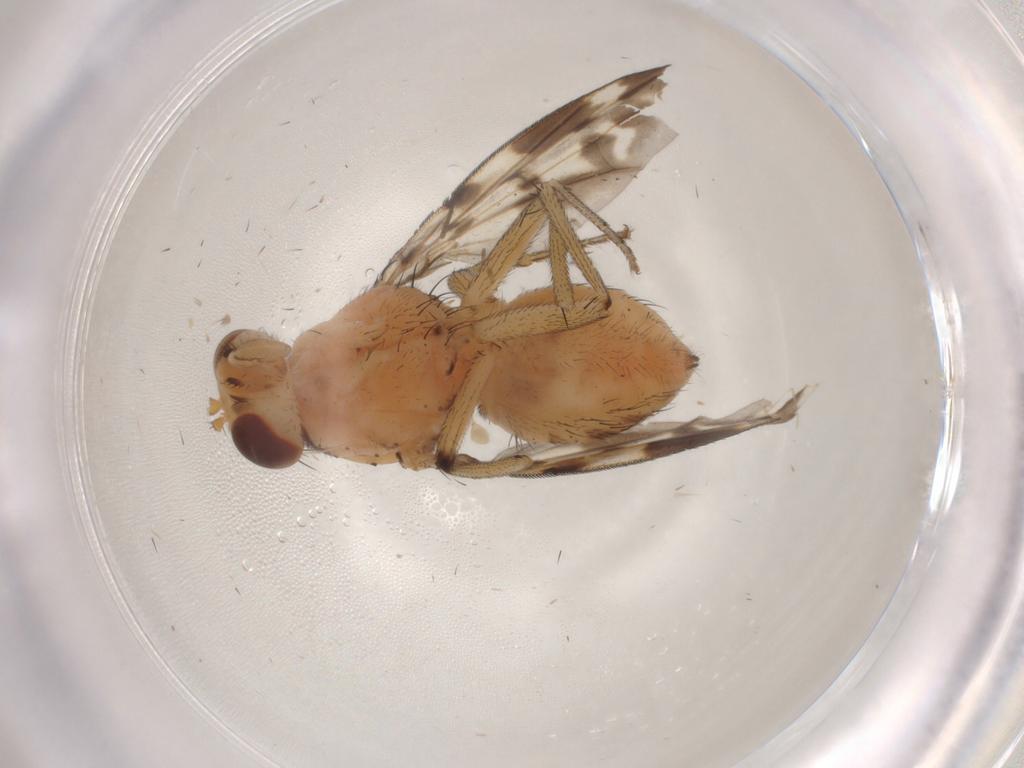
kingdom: Animalia
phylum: Arthropoda
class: Insecta
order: Diptera
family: Sciaridae
